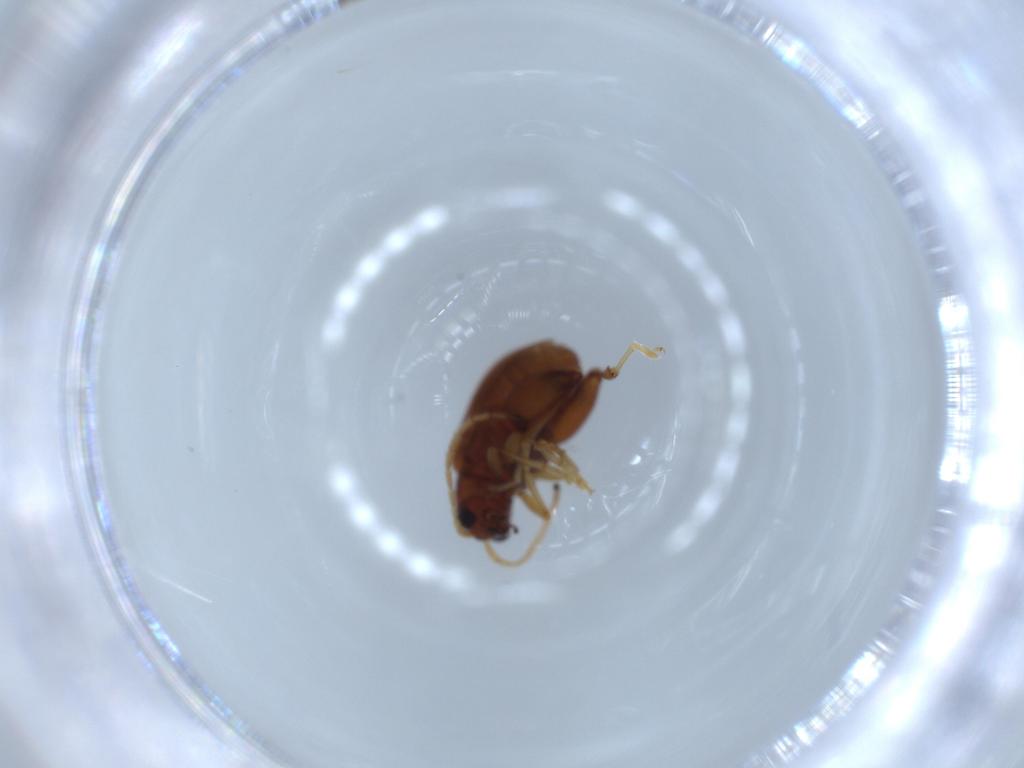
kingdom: Animalia
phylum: Arthropoda
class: Insecta
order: Coleoptera
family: Chrysomelidae
